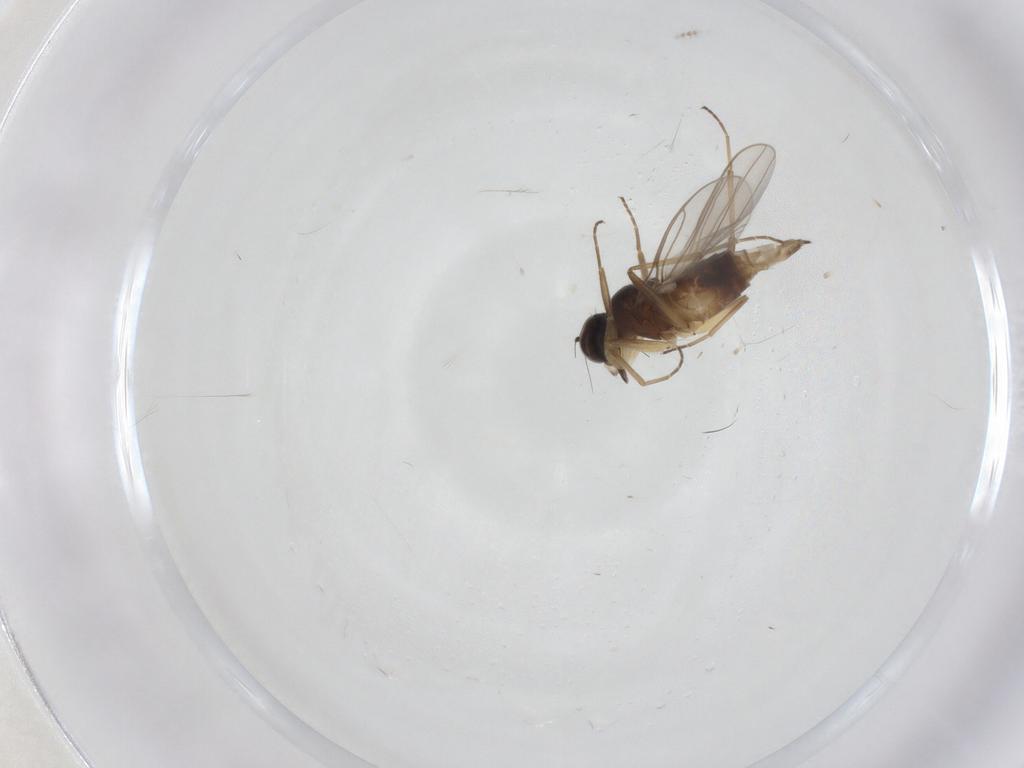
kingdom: Animalia
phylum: Arthropoda
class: Insecta
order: Diptera
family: Hybotidae
